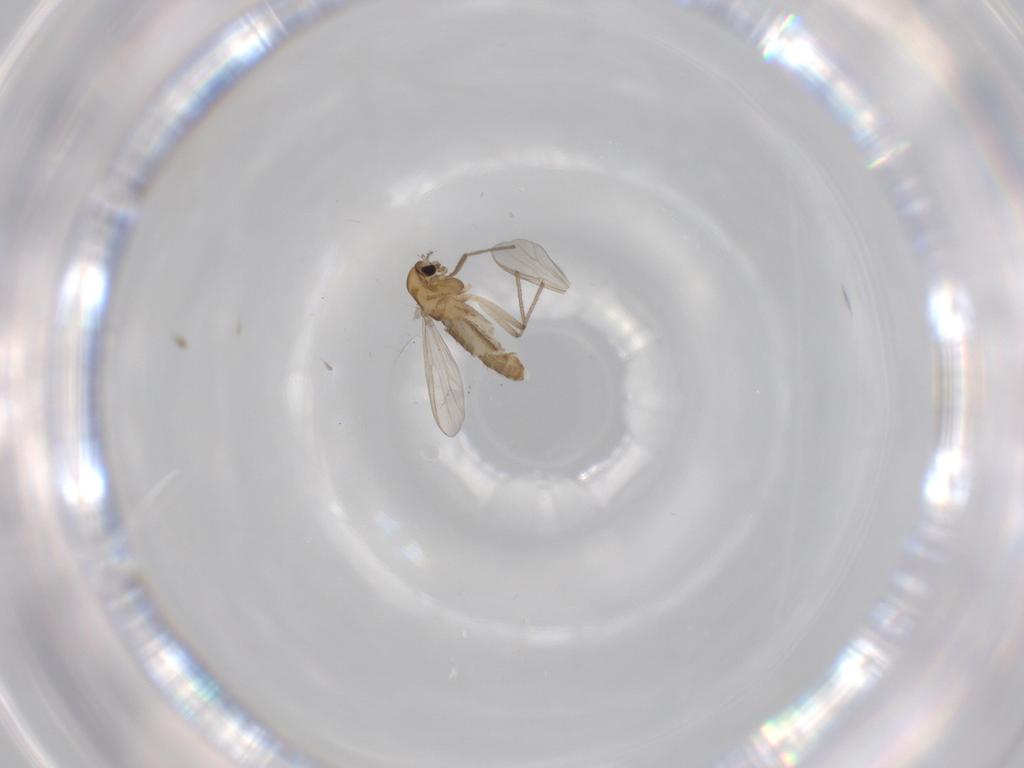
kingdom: Animalia
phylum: Arthropoda
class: Insecta
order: Diptera
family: Chironomidae
